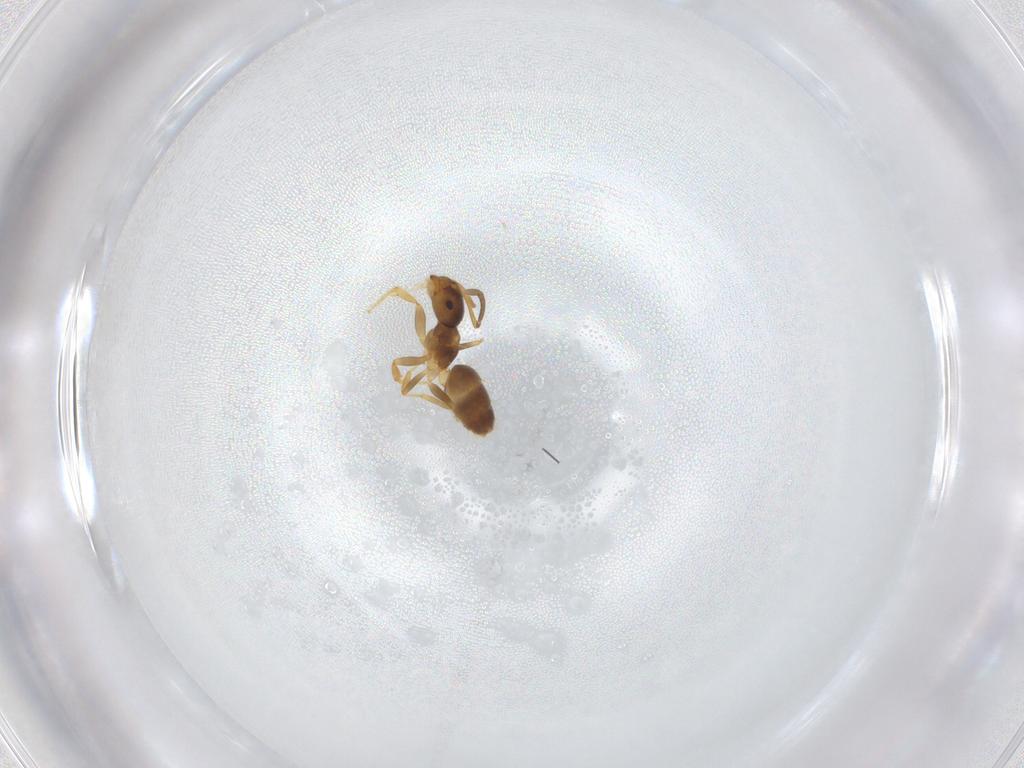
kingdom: Animalia
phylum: Arthropoda
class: Insecta
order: Hymenoptera
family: Formicidae
